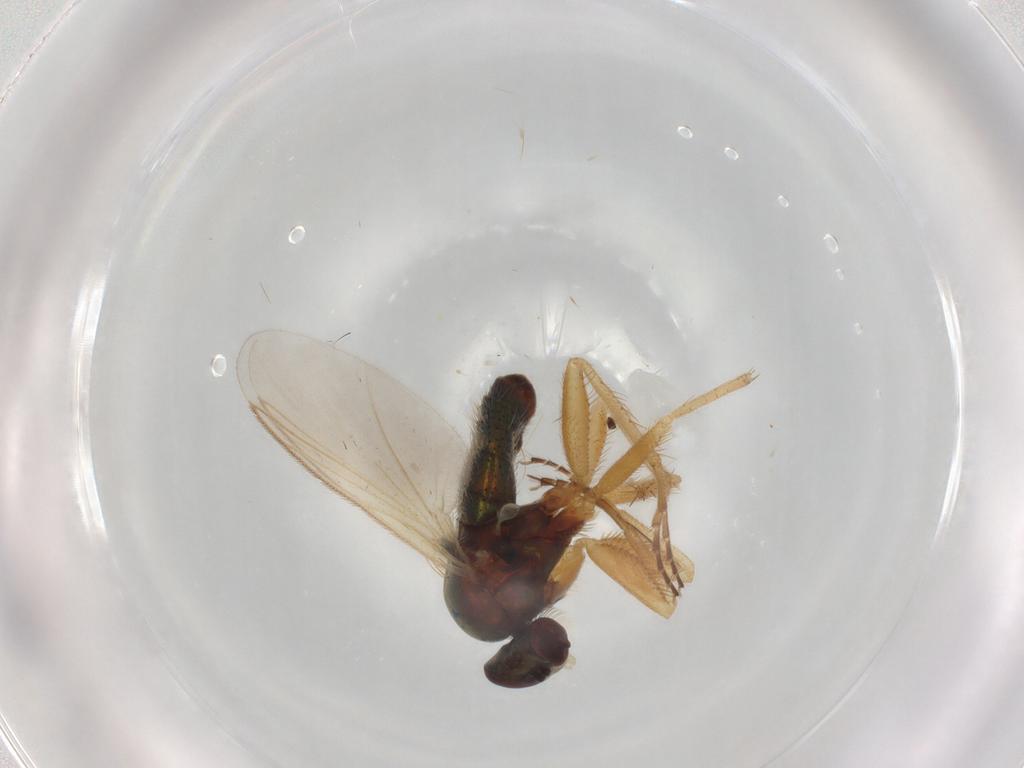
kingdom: Animalia
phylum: Arthropoda
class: Insecta
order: Diptera
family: Dolichopodidae
